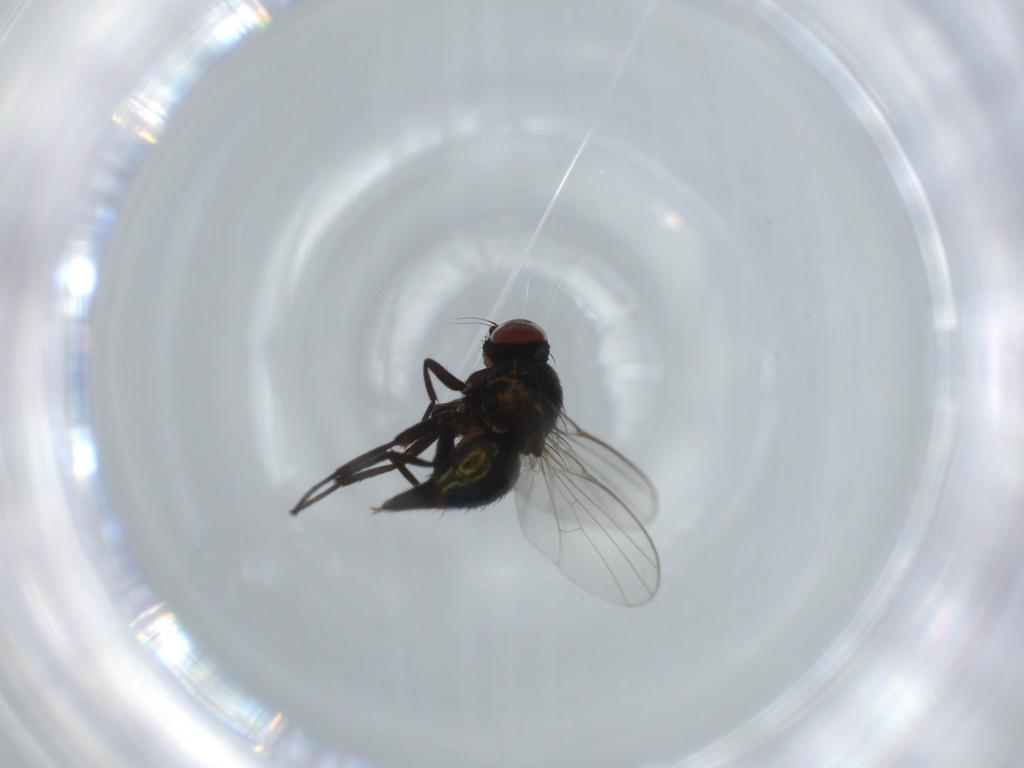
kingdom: Animalia
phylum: Arthropoda
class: Insecta
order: Diptera
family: Agromyzidae
